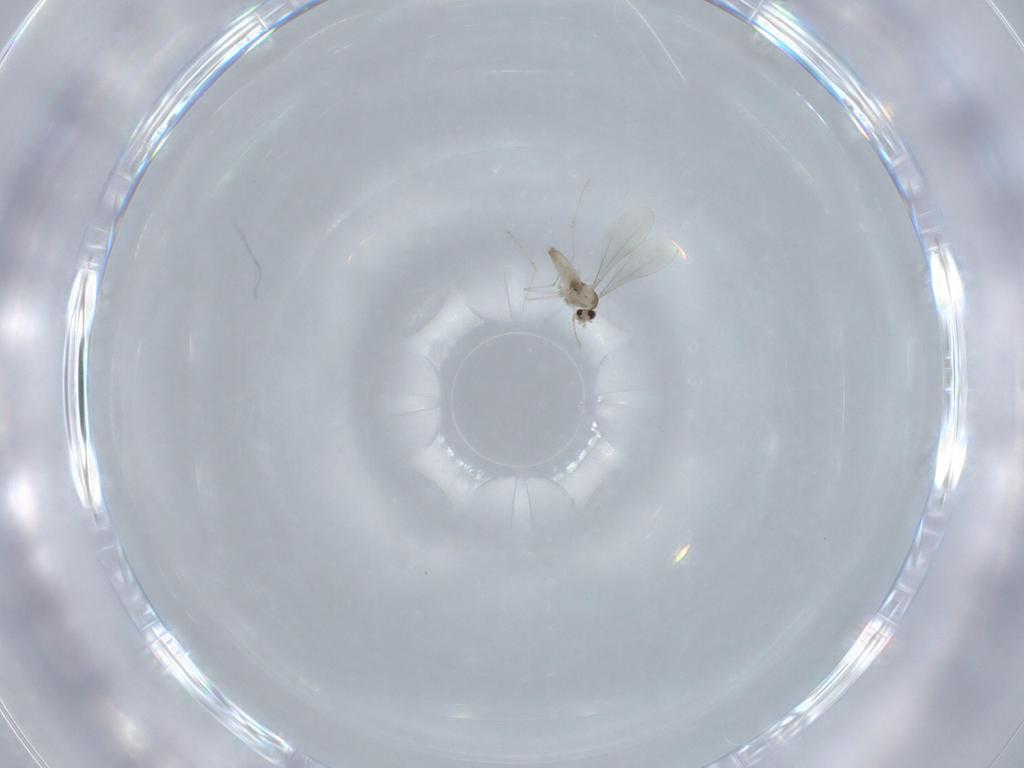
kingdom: Animalia
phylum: Arthropoda
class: Insecta
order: Diptera
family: Cecidomyiidae
